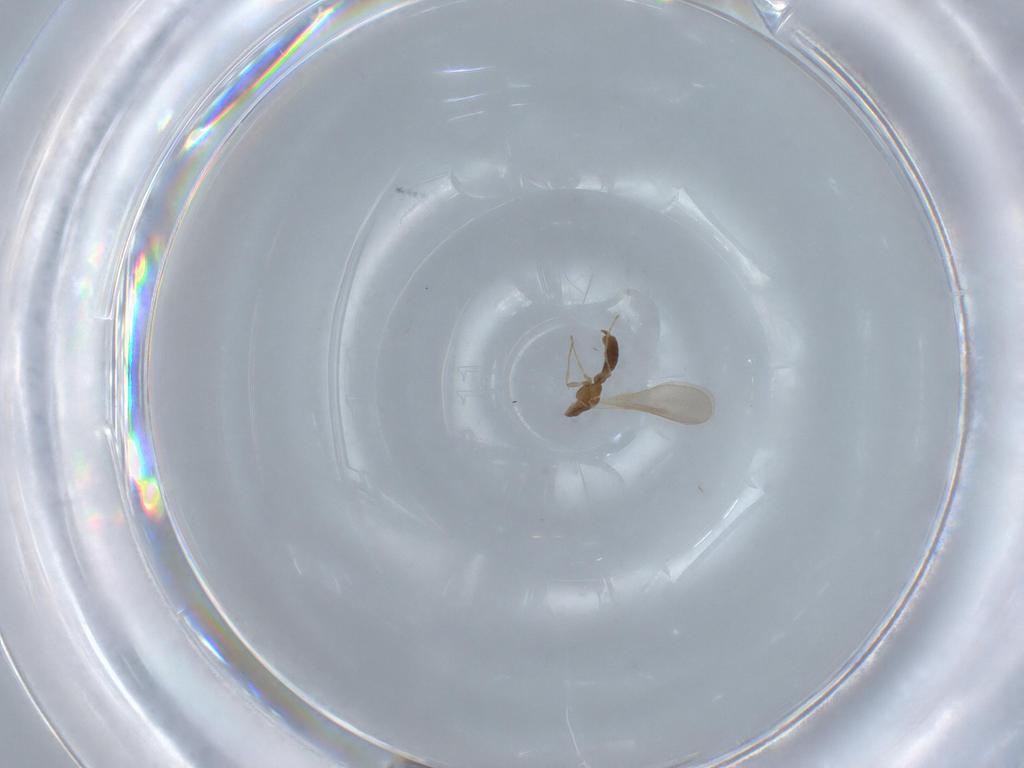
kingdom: Animalia
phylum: Arthropoda
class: Insecta
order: Hymenoptera
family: Formicidae
